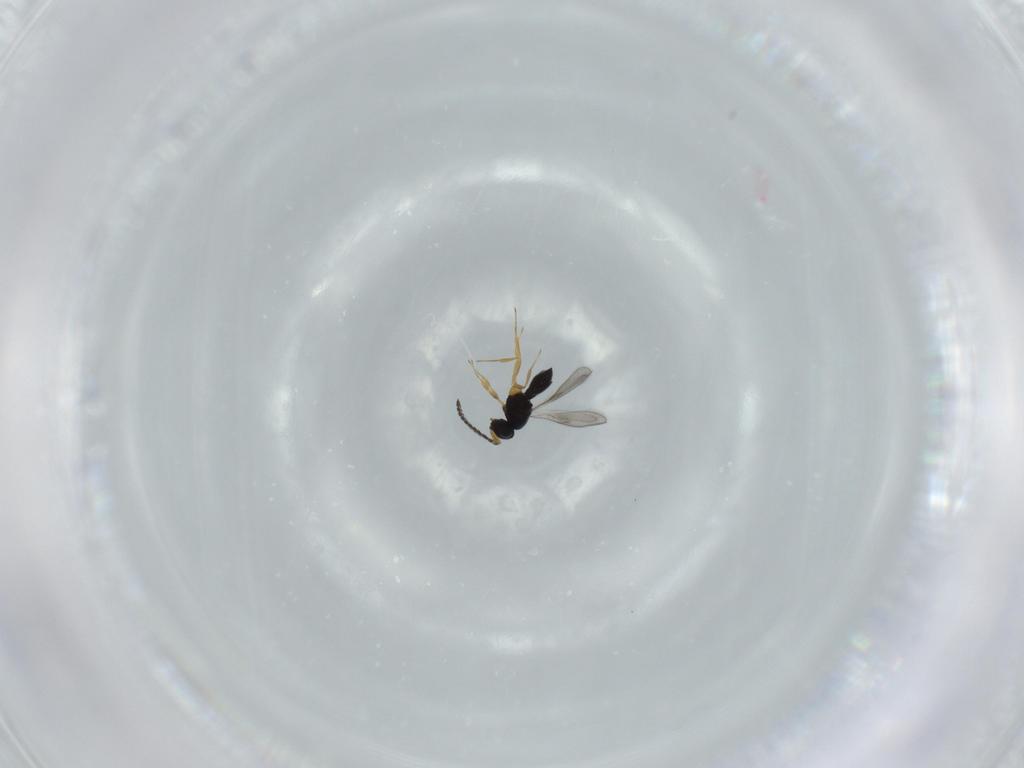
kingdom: Animalia
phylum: Arthropoda
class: Insecta
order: Hymenoptera
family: Scelionidae
